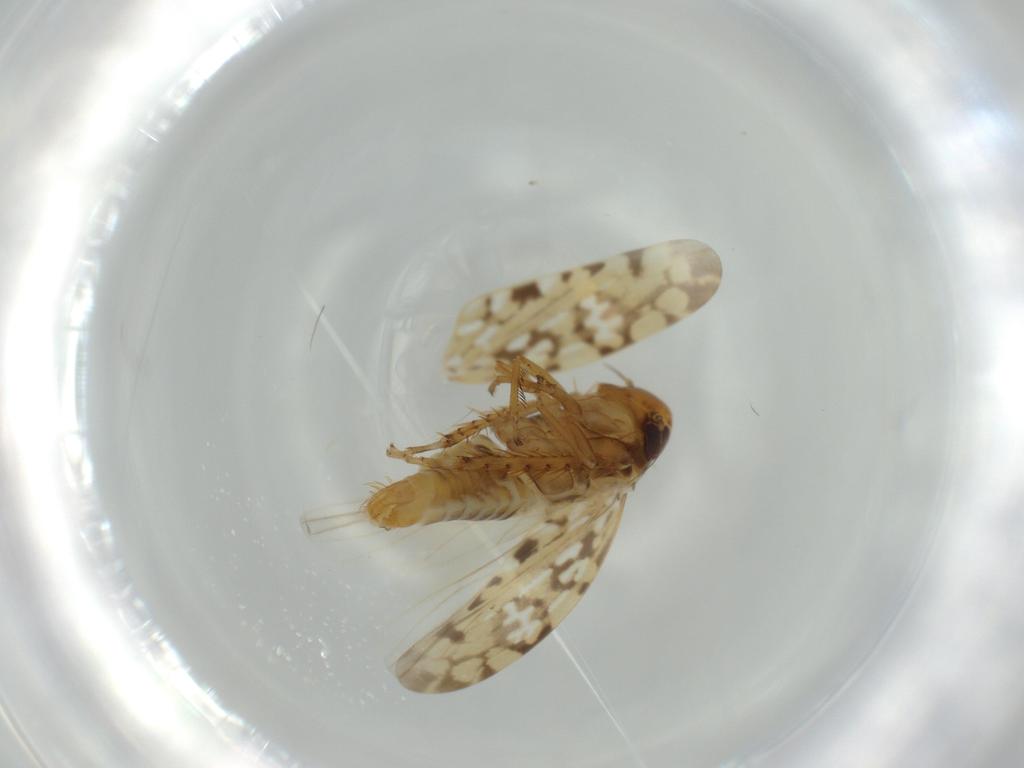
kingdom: Animalia
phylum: Arthropoda
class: Insecta
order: Hemiptera
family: Cicadellidae
